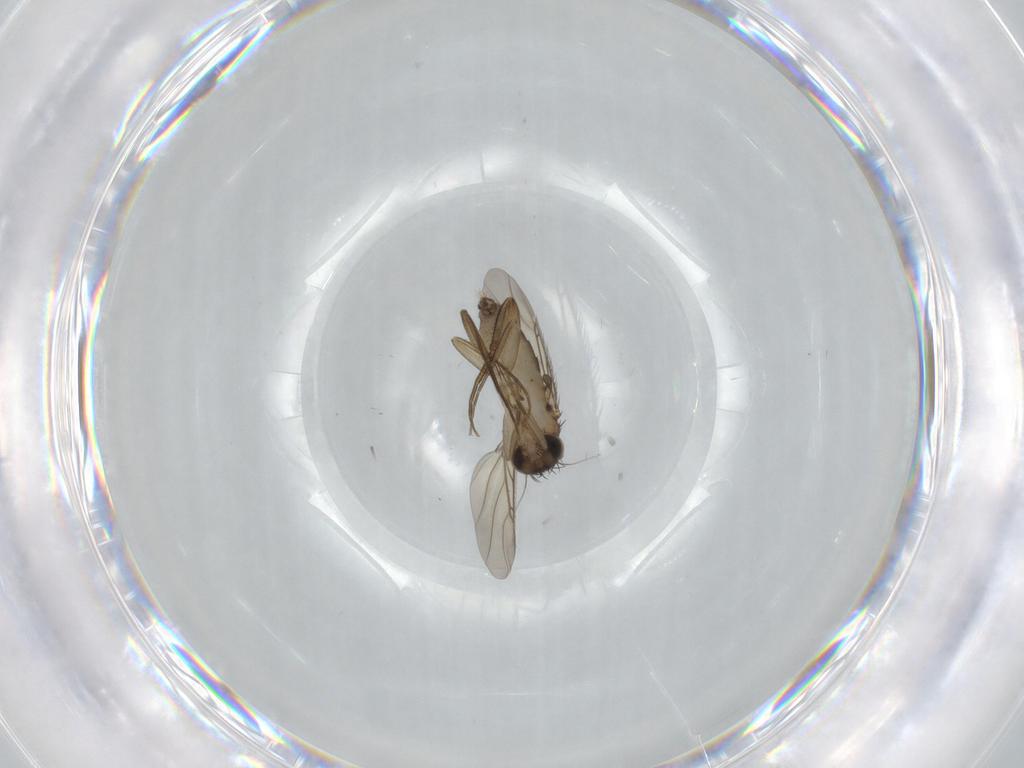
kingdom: Animalia
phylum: Arthropoda
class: Insecta
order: Diptera
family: Phoridae
